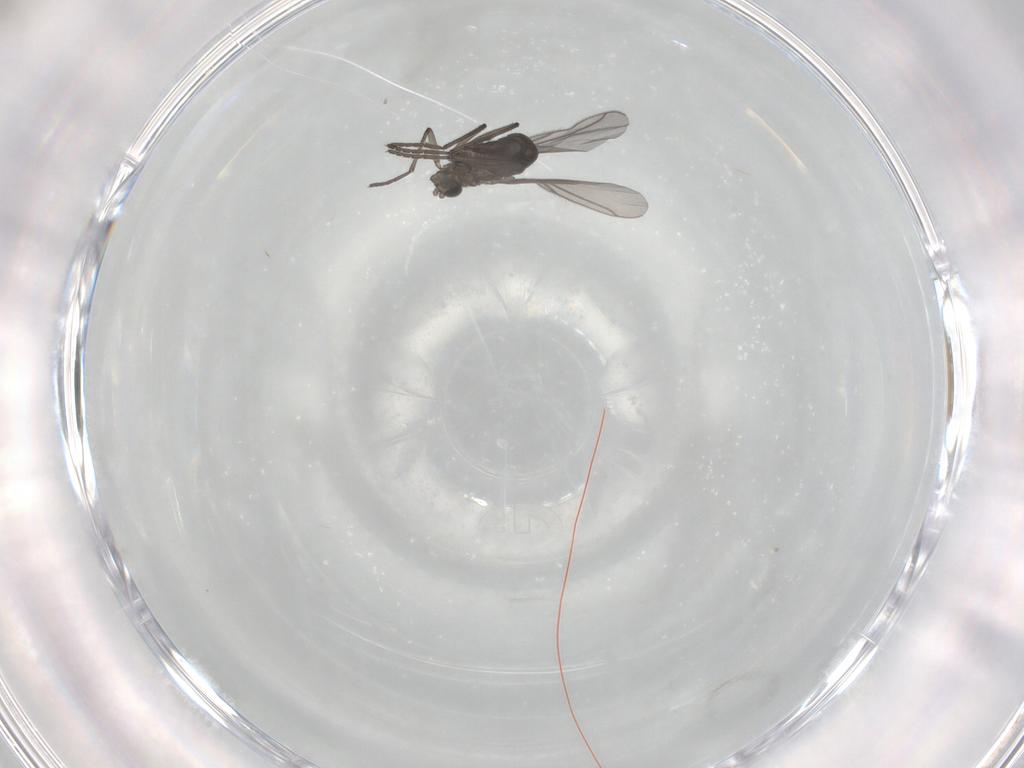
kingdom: Animalia
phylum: Arthropoda
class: Insecta
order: Diptera
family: Sciaridae
